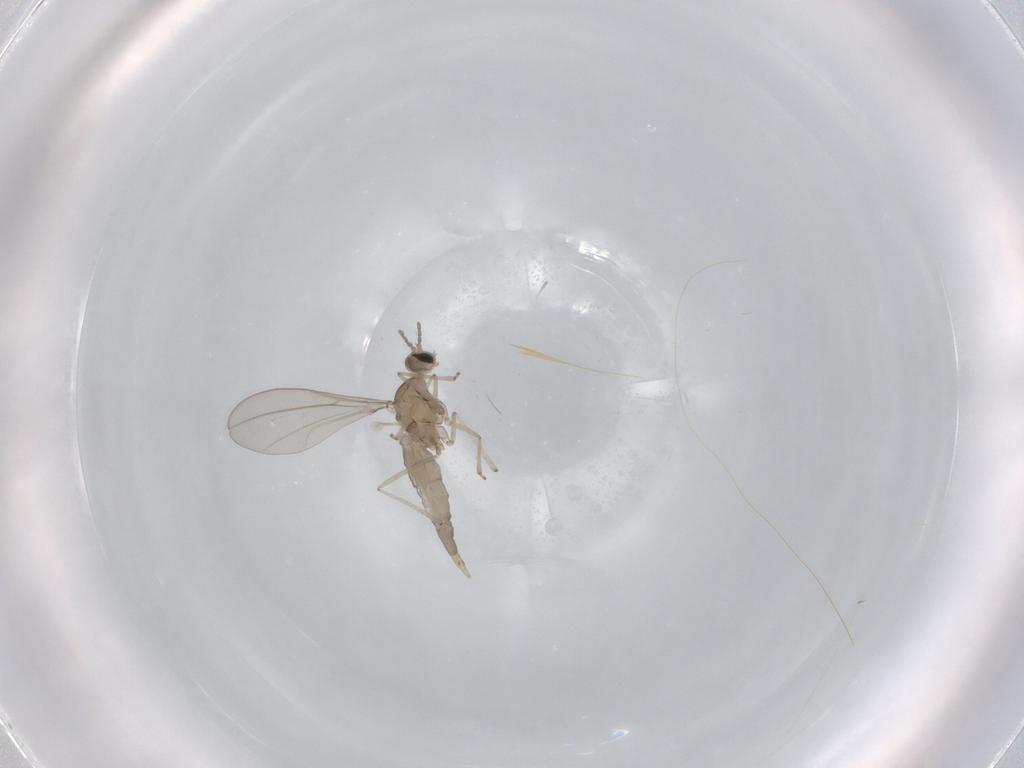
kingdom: Animalia
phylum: Arthropoda
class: Insecta
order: Diptera
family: Cecidomyiidae
